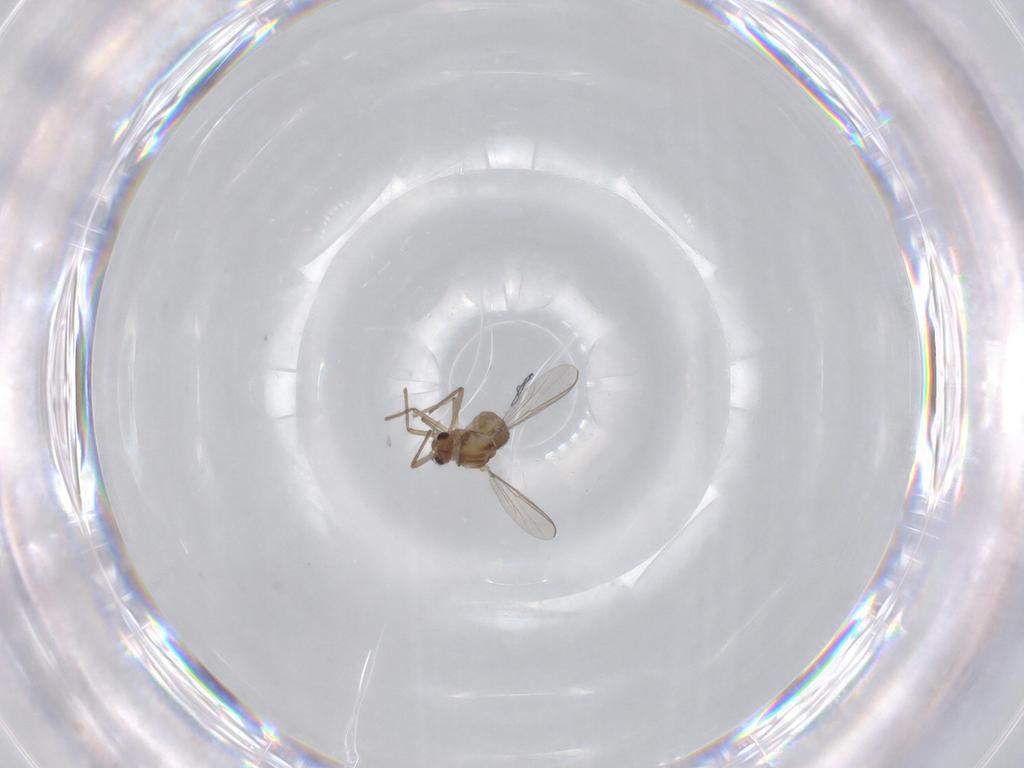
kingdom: Animalia
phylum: Arthropoda
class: Insecta
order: Diptera
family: Chironomidae
